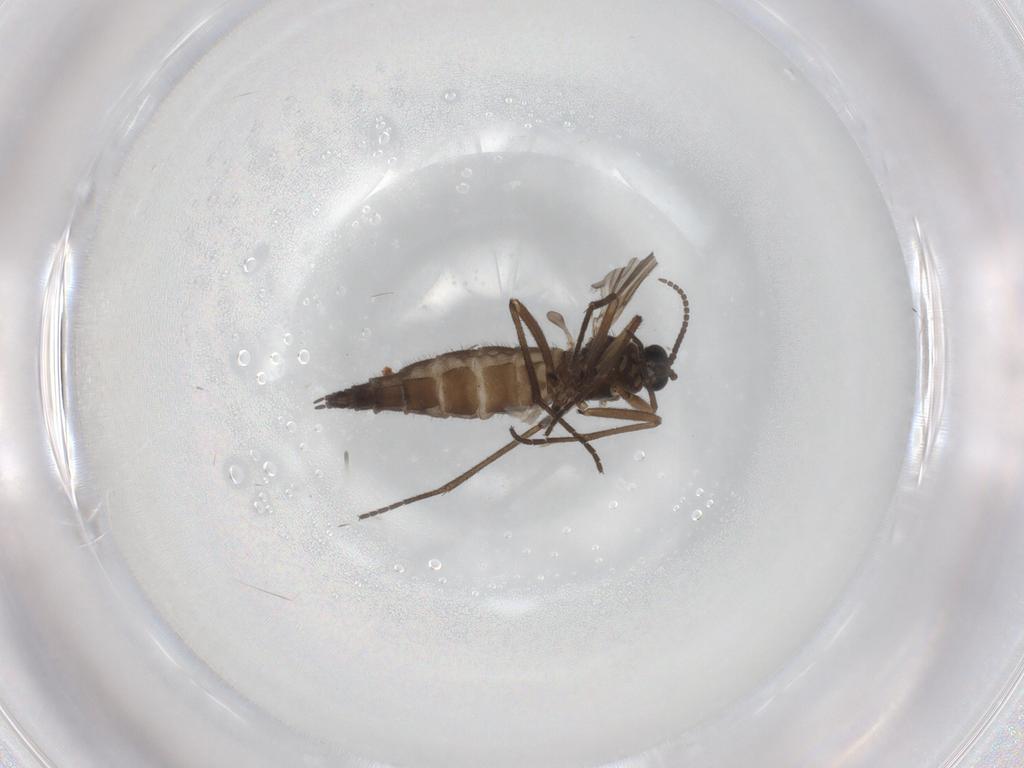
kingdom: Animalia
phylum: Arthropoda
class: Insecta
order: Diptera
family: Sciaridae
